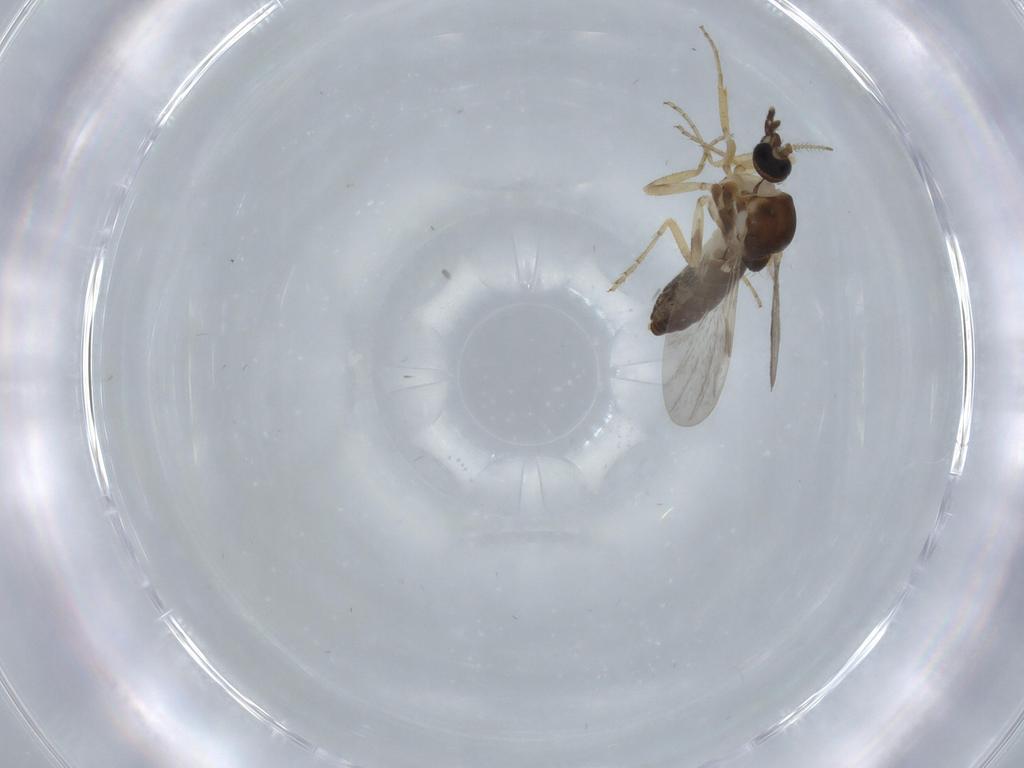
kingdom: Animalia
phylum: Arthropoda
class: Insecta
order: Diptera
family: Ceratopogonidae
